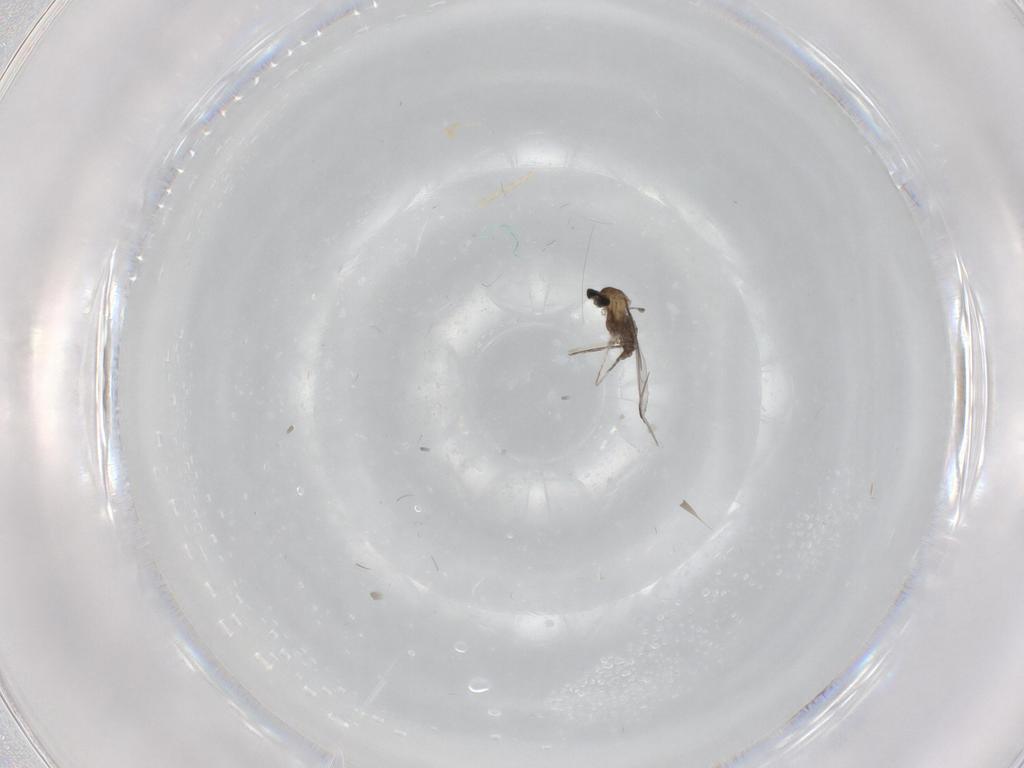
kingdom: Animalia
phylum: Arthropoda
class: Insecta
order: Diptera
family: Cecidomyiidae
